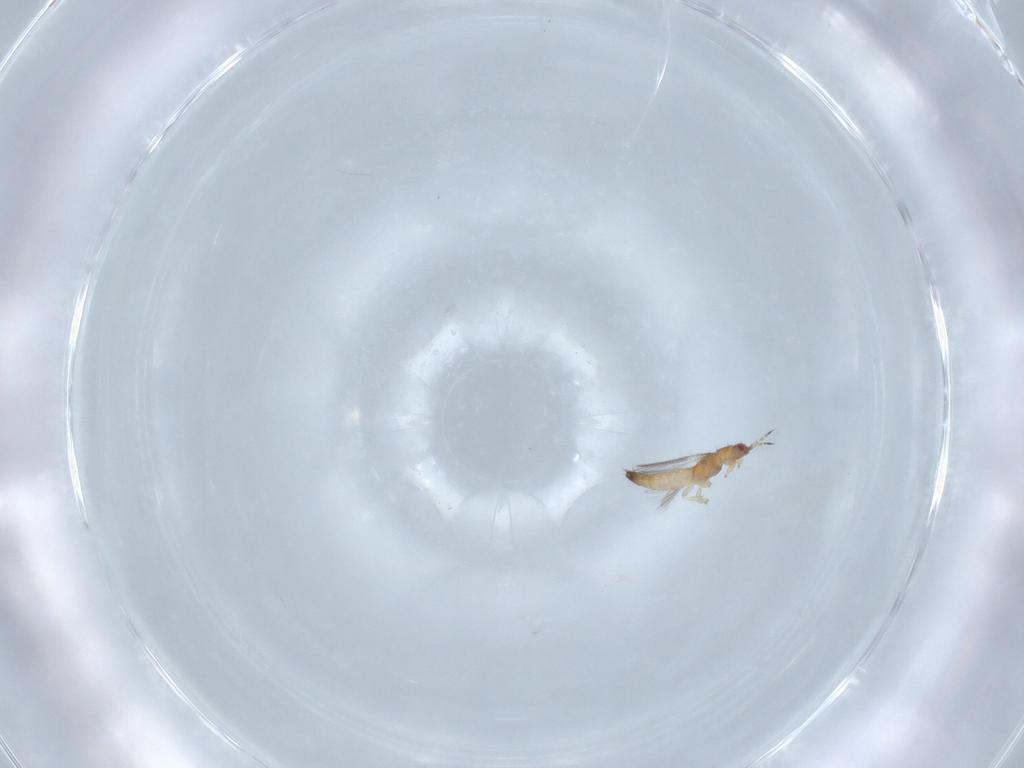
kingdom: Animalia
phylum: Arthropoda
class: Insecta
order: Thysanoptera
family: Thripidae
